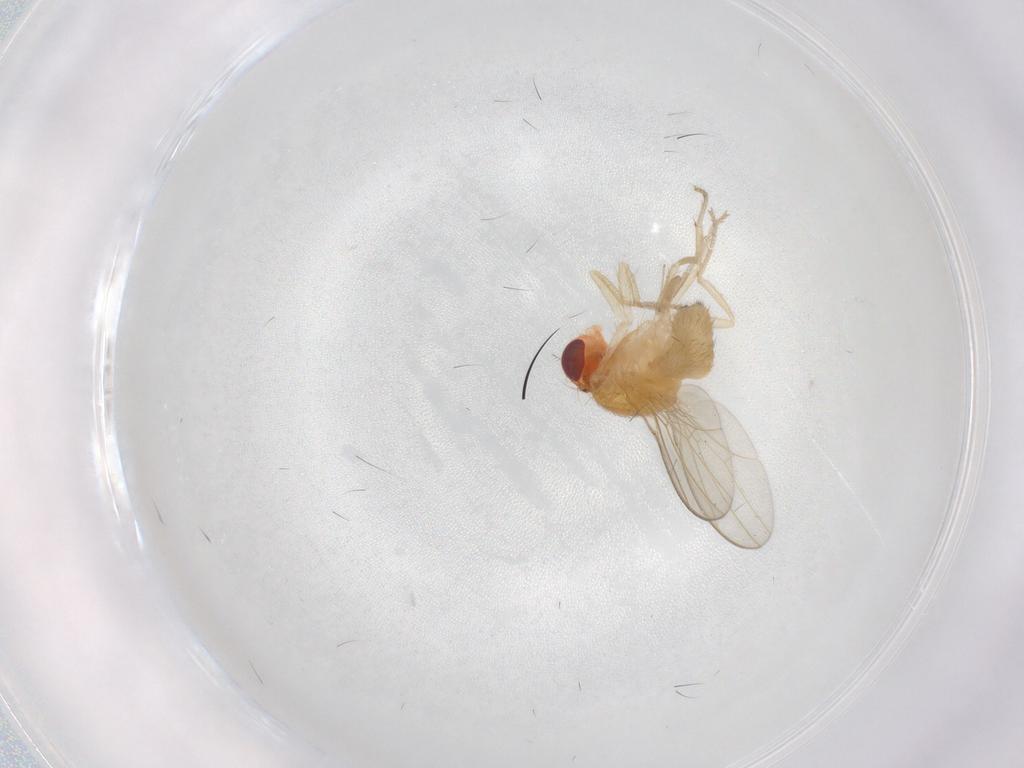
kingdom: Animalia
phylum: Arthropoda
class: Insecta
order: Diptera
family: Drosophilidae
